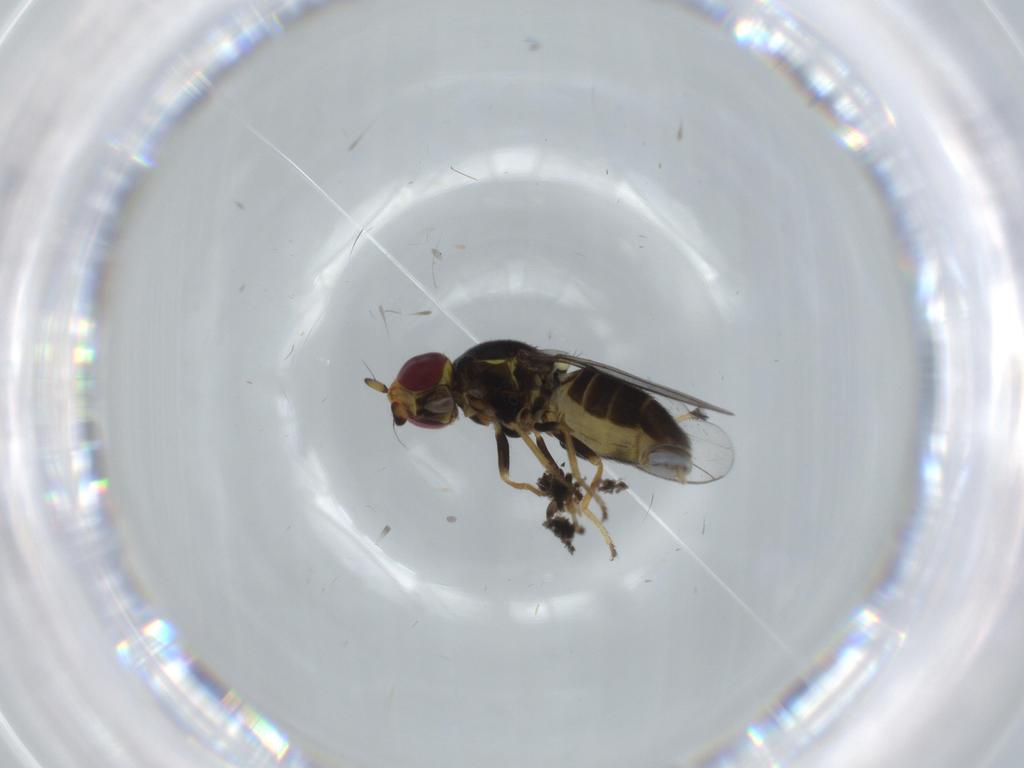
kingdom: Animalia
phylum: Arthropoda
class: Insecta
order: Diptera
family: Chloropidae
